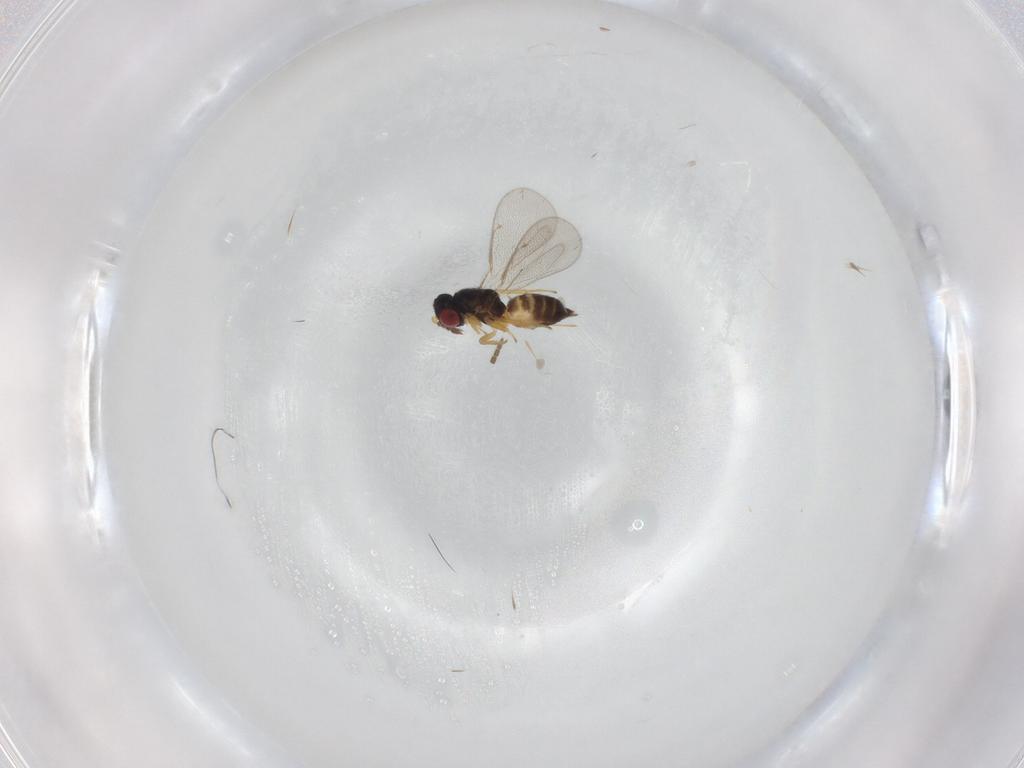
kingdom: Animalia
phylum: Arthropoda
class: Insecta
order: Hymenoptera
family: Eulophidae
